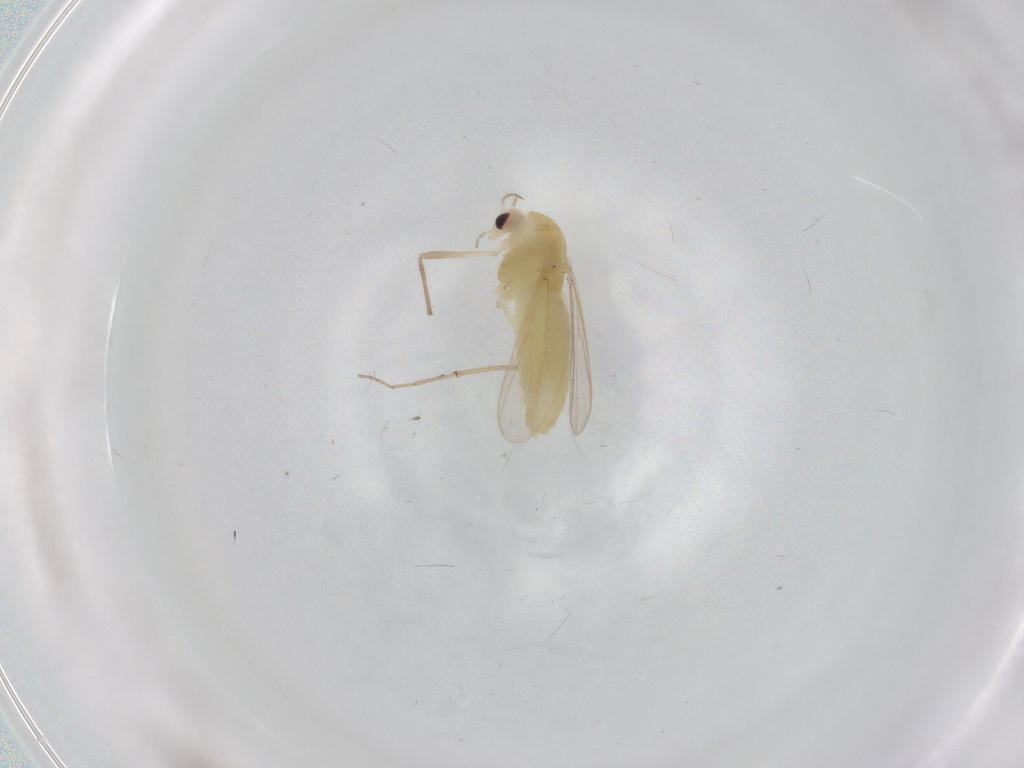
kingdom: Animalia
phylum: Arthropoda
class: Insecta
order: Diptera
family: Chironomidae
